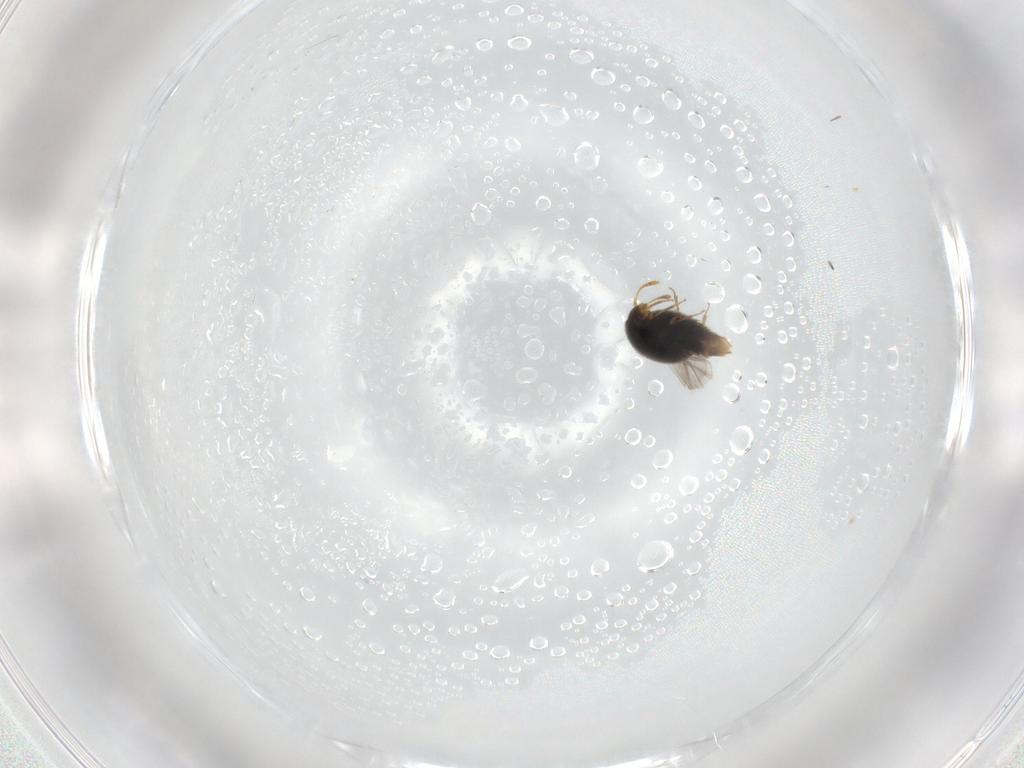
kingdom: Animalia
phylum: Arthropoda
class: Insecta
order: Coleoptera
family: Staphylinidae
